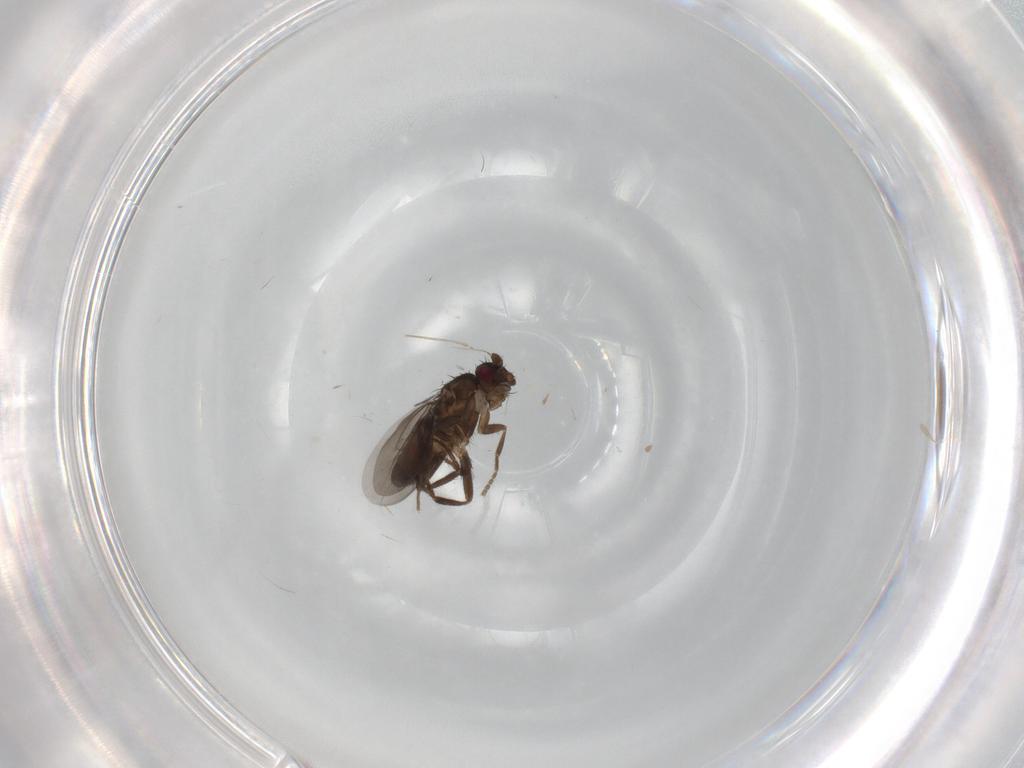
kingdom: Animalia
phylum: Arthropoda
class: Insecta
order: Diptera
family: Sphaeroceridae
